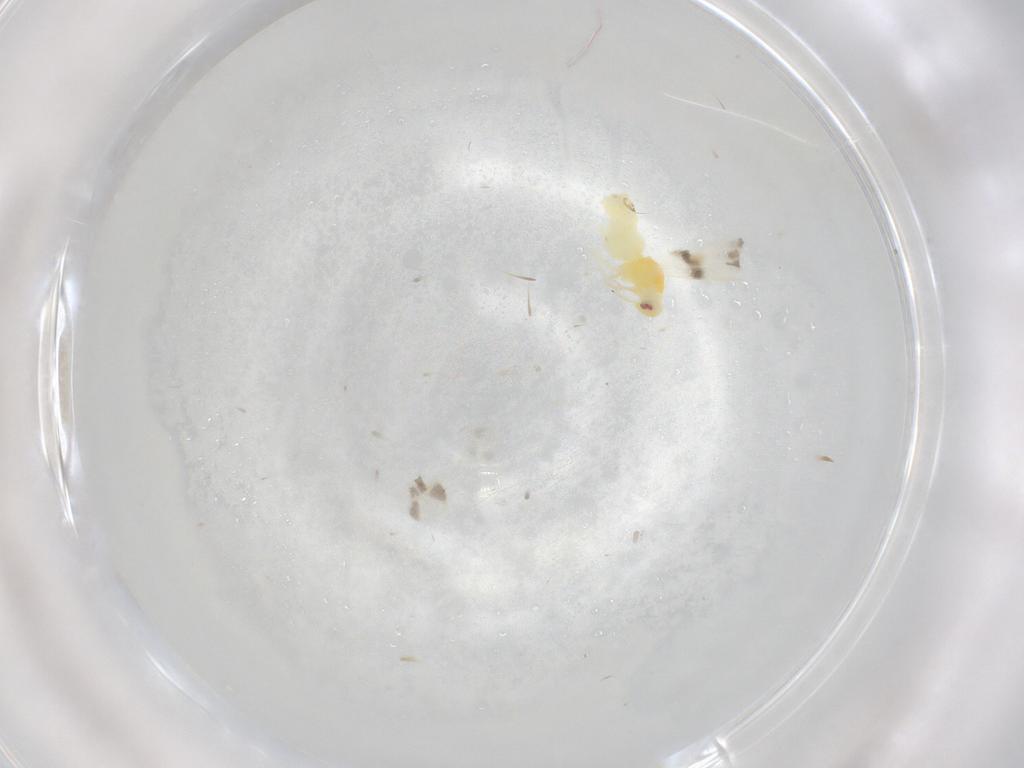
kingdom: Animalia
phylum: Arthropoda
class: Insecta
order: Hemiptera
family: Aleyrodidae
